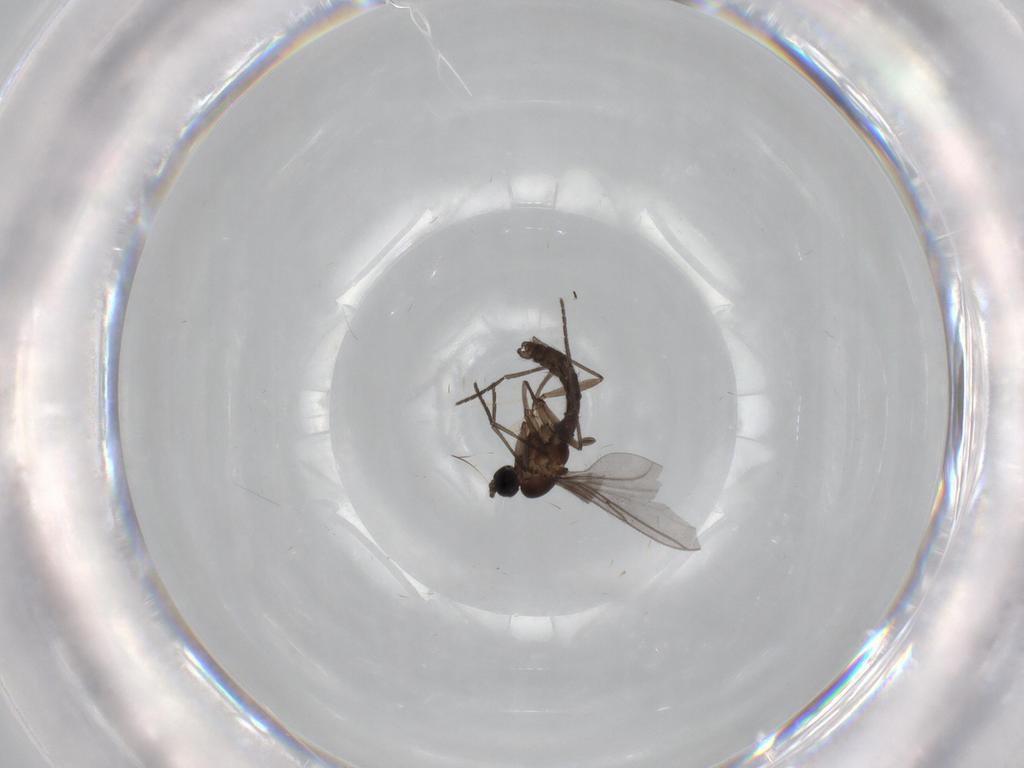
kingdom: Animalia
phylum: Arthropoda
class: Insecta
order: Diptera
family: Sciaridae
